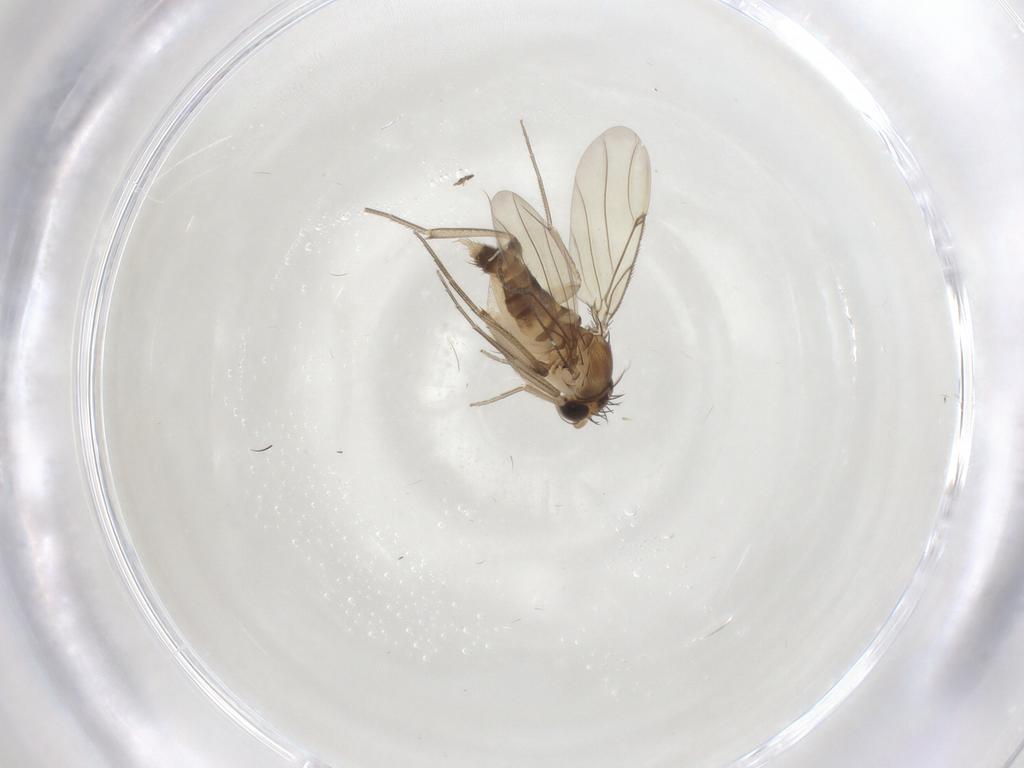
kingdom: Animalia
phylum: Arthropoda
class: Insecta
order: Diptera
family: Phoridae
